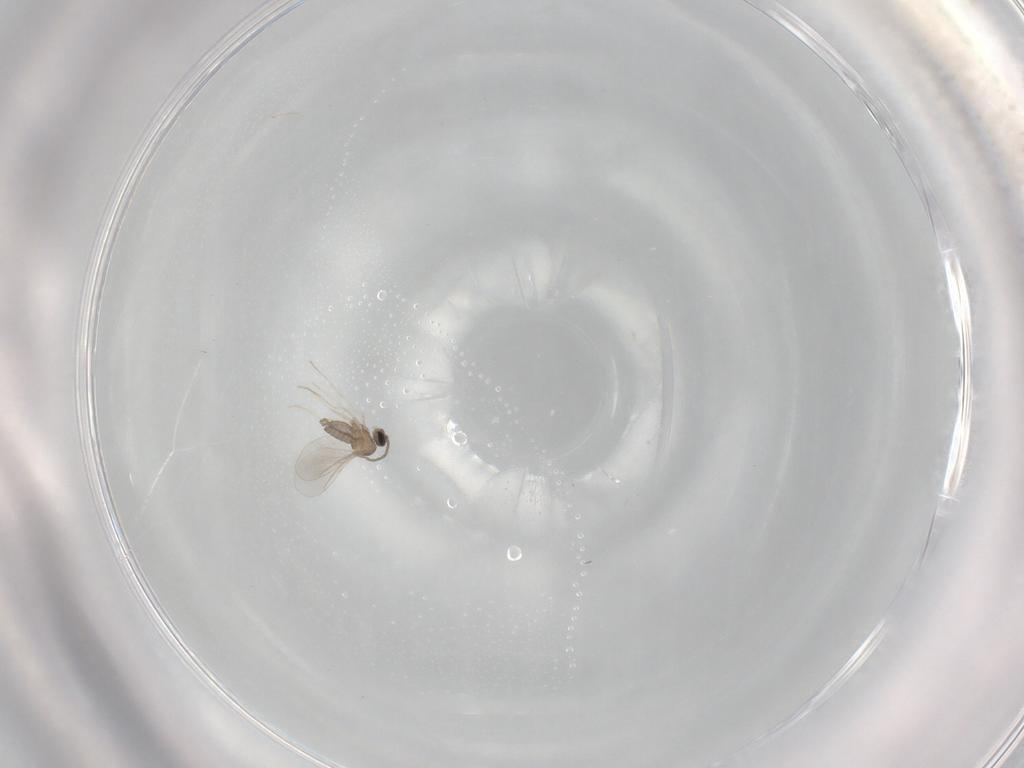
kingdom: Animalia
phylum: Arthropoda
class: Insecta
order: Diptera
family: Cecidomyiidae
